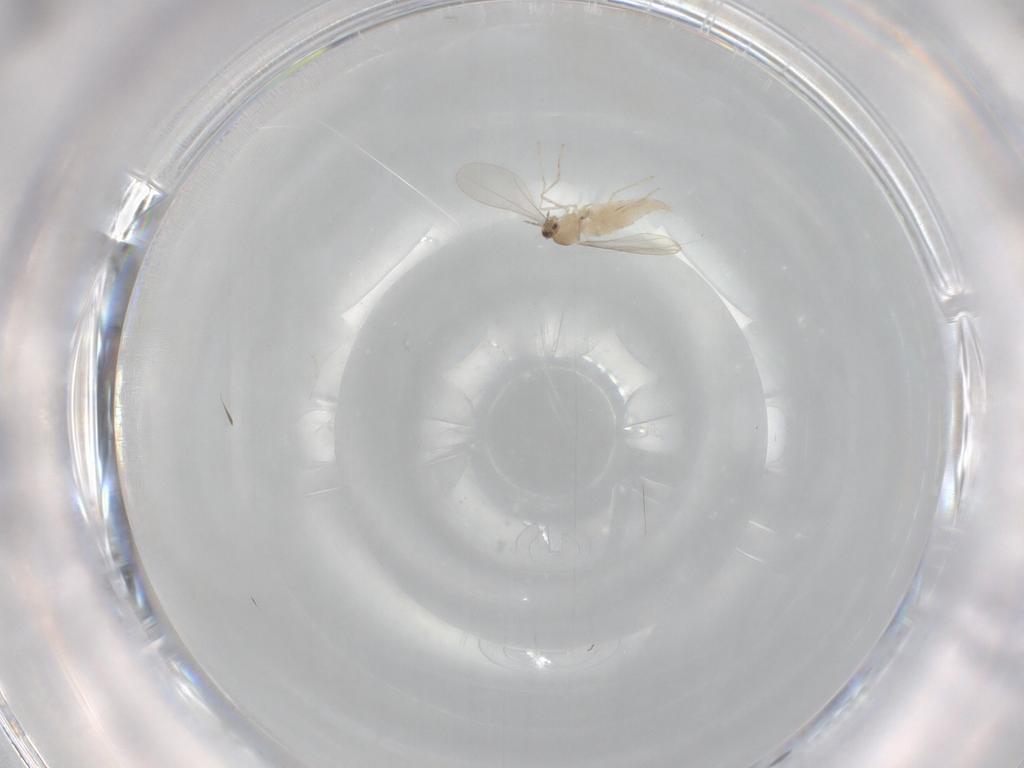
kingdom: Animalia
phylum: Arthropoda
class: Insecta
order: Diptera
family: Cecidomyiidae
